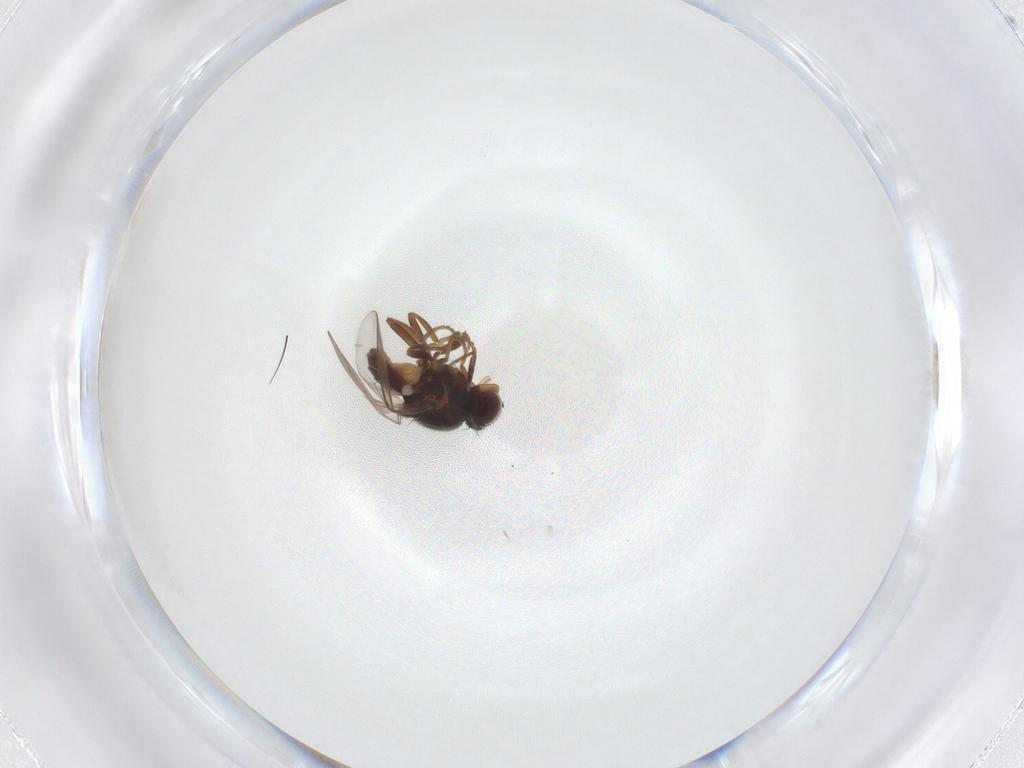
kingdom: Animalia
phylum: Arthropoda
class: Insecta
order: Diptera
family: Chloropidae
